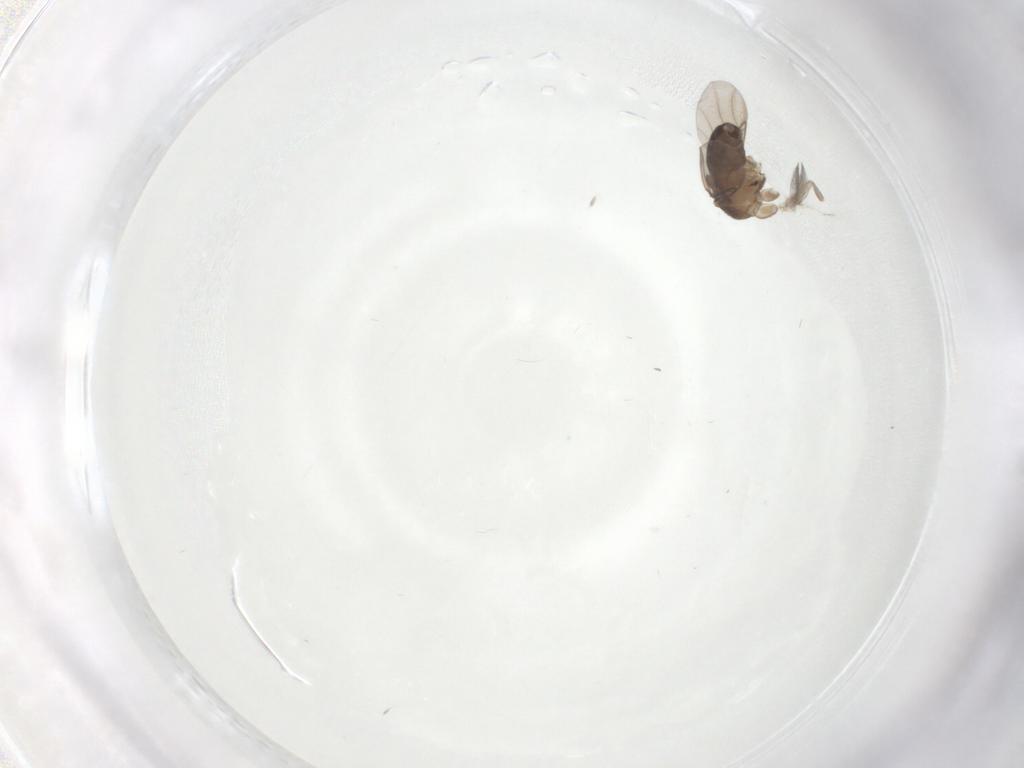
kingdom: Animalia
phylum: Arthropoda
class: Insecta
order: Diptera
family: Ceratopogonidae
